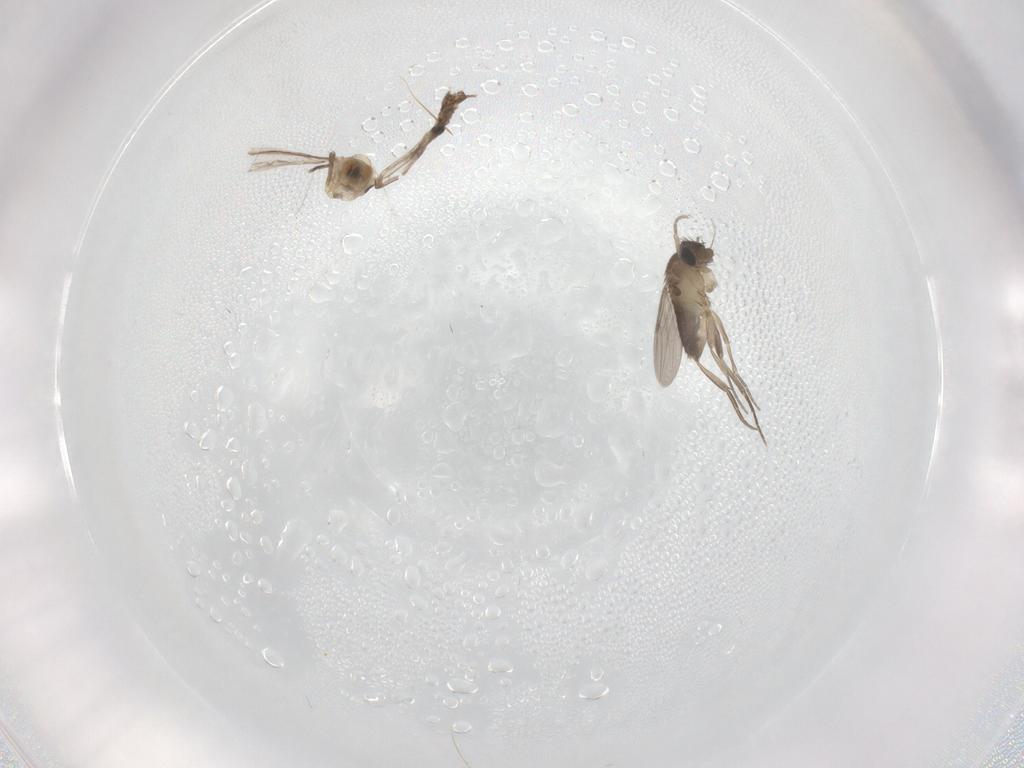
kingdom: Animalia
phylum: Arthropoda
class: Insecta
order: Diptera
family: Cecidomyiidae
